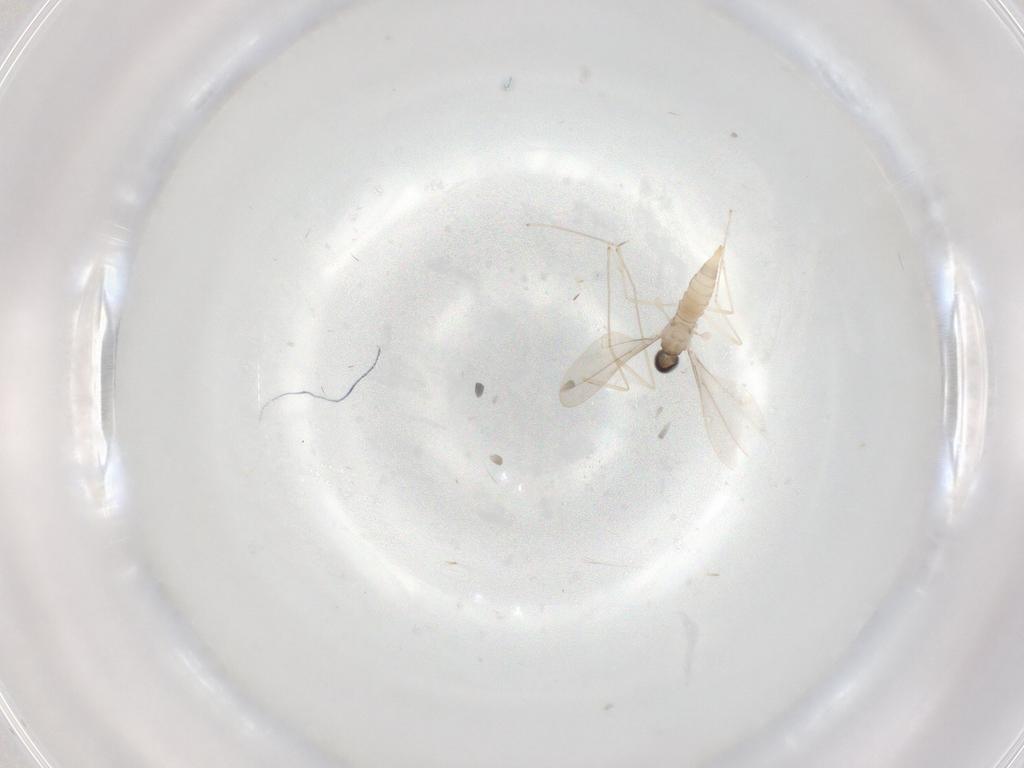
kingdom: Animalia
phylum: Arthropoda
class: Insecta
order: Diptera
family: Cecidomyiidae
